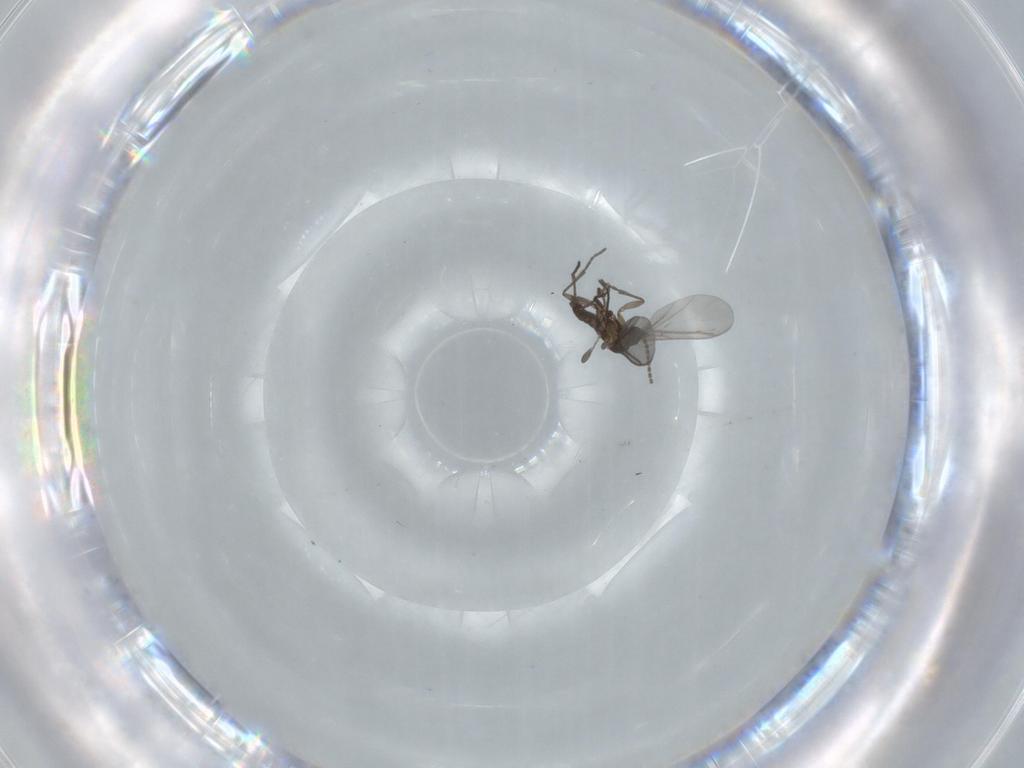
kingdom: Animalia
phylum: Arthropoda
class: Insecta
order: Diptera
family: Cecidomyiidae
